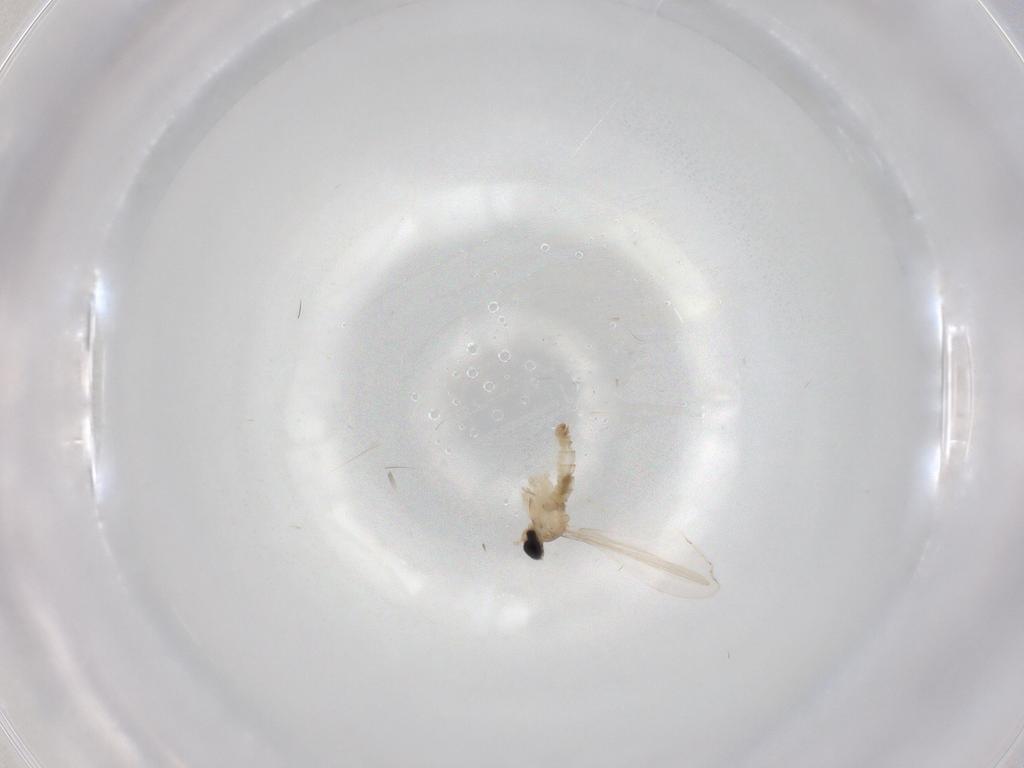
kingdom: Animalia
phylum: Arthropoda
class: Insecta
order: Diptera
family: Cecidomyiidae
